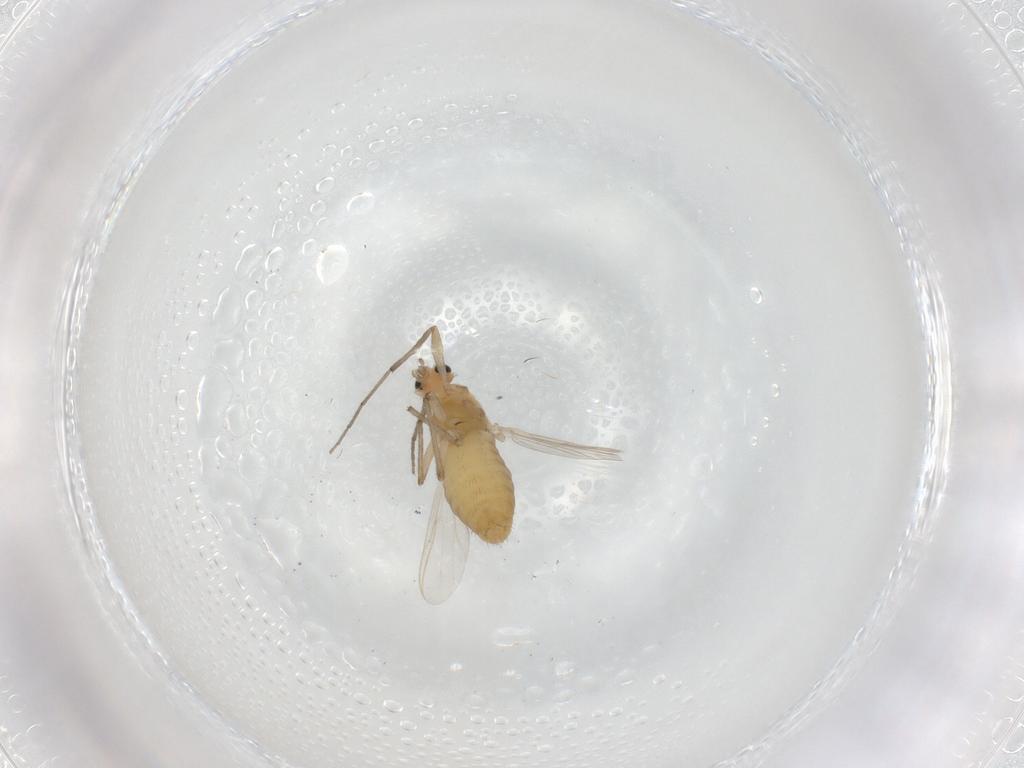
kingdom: Animalia
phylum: Arthropoda
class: Insecta
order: Diptera
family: Chironomidae
